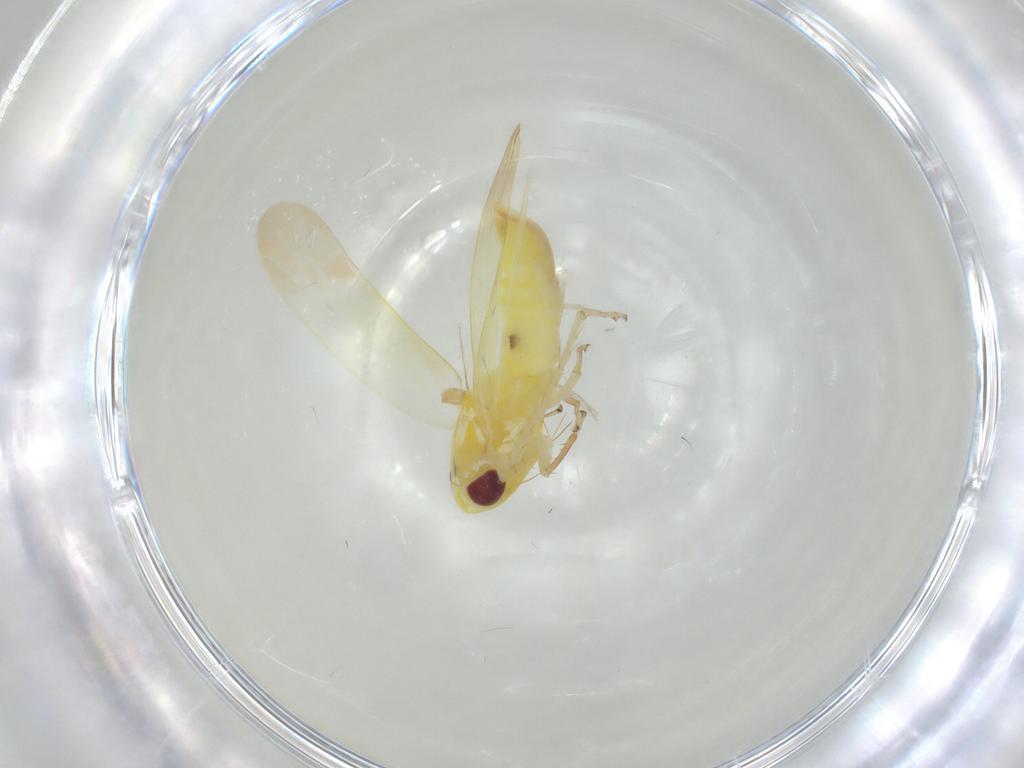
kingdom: Animalia
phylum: Arthropoda
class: Insecta
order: Hemiptera
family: Cicadellidae
